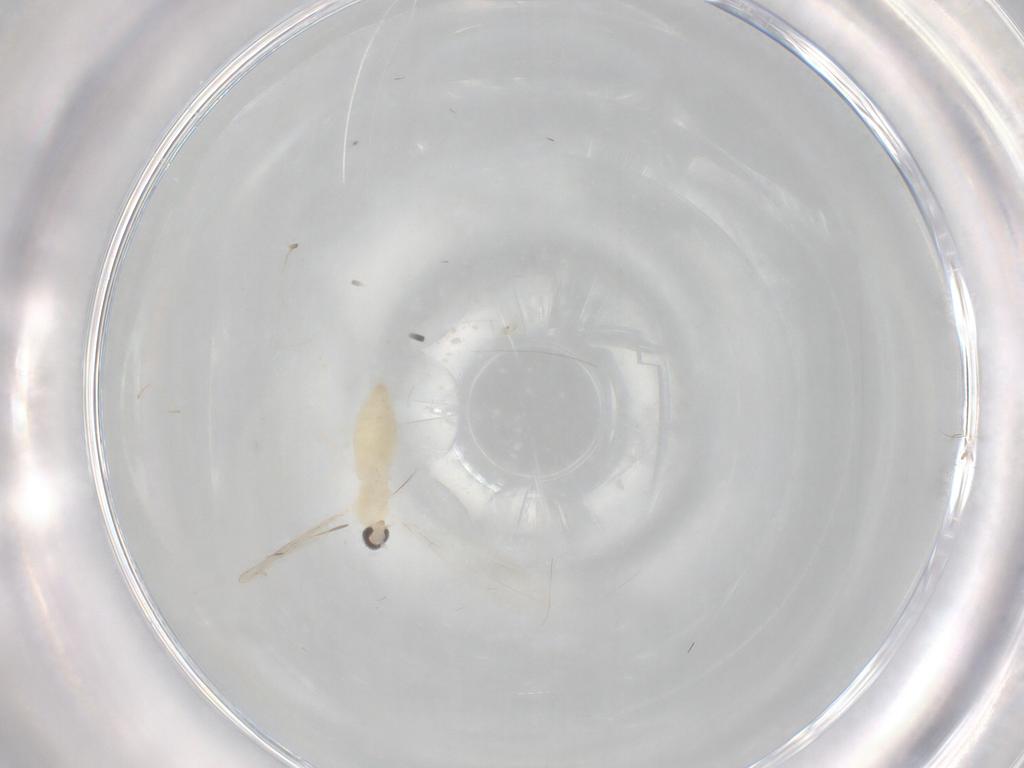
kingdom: Animalia
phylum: Arthropoda
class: Insecta
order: Diptera
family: Cecidomyiidae
